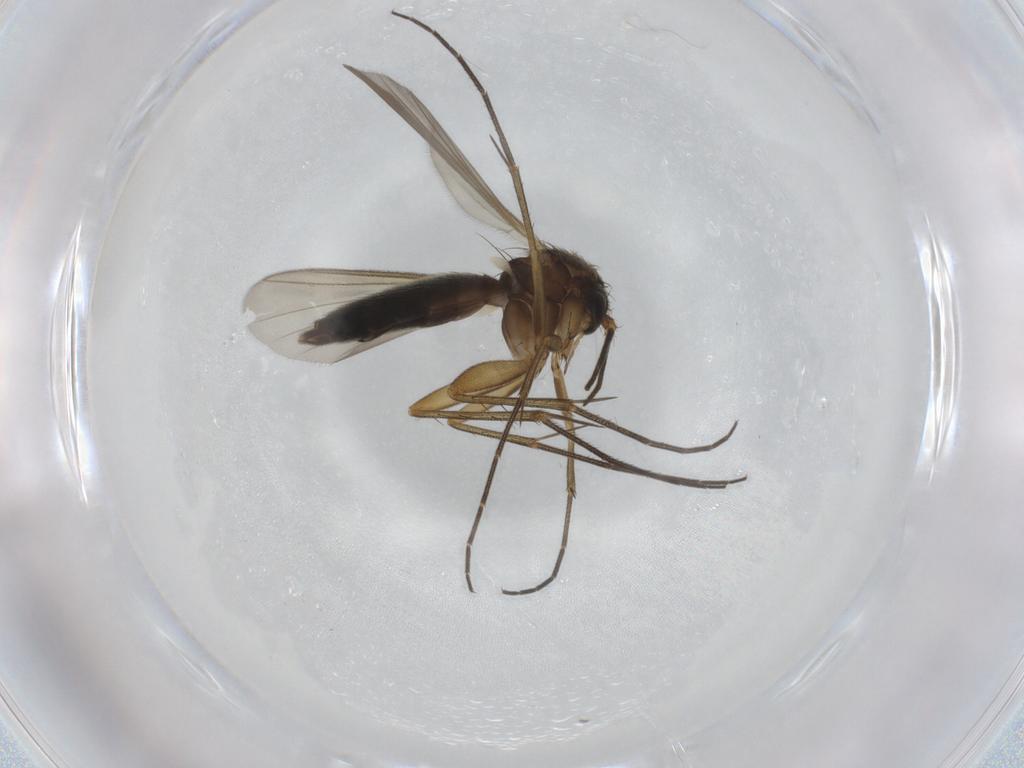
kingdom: Animalia
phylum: Arthropoda
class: Insecta
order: Diptera
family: Mycetophilidae
